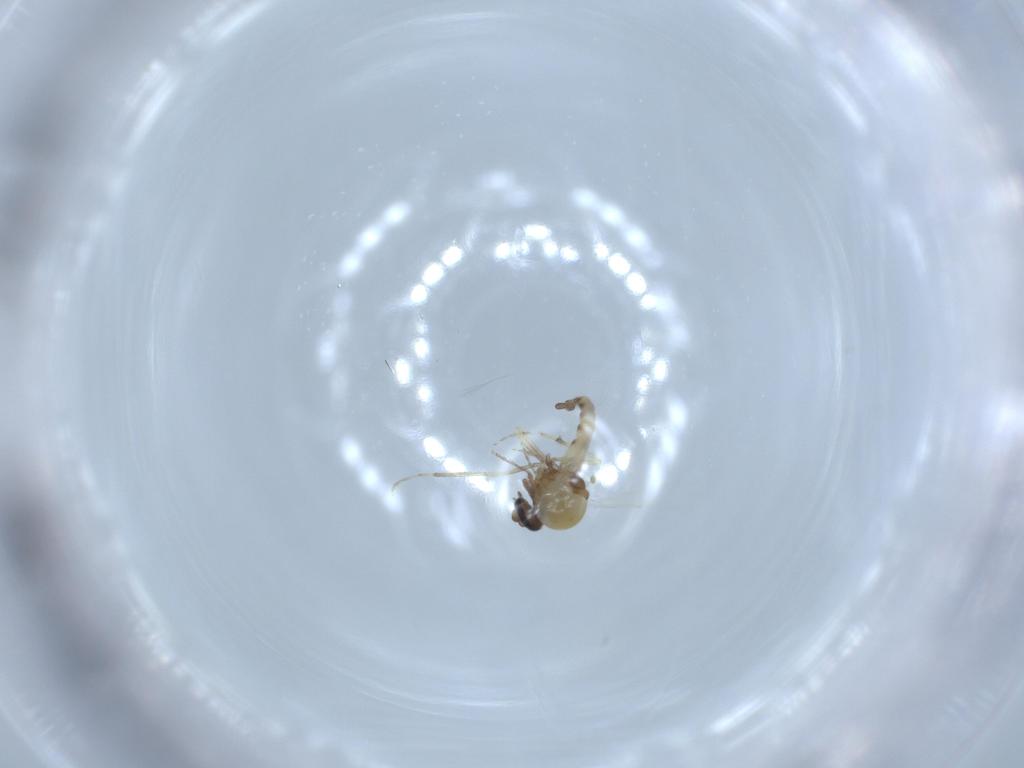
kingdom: Animalia
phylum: Arthropoda
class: Insecta
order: Diptera
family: Ceratopogonidae
